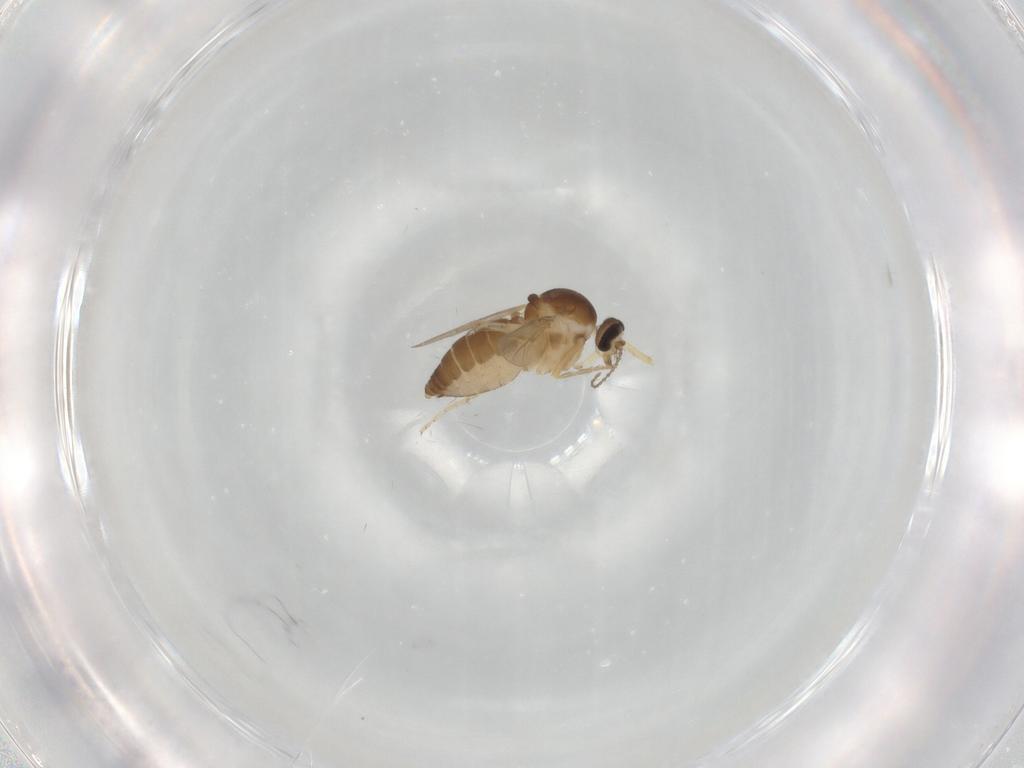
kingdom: Animalia
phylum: Arthropoda
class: Insecta
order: Diptera
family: Ceratopogonidae
